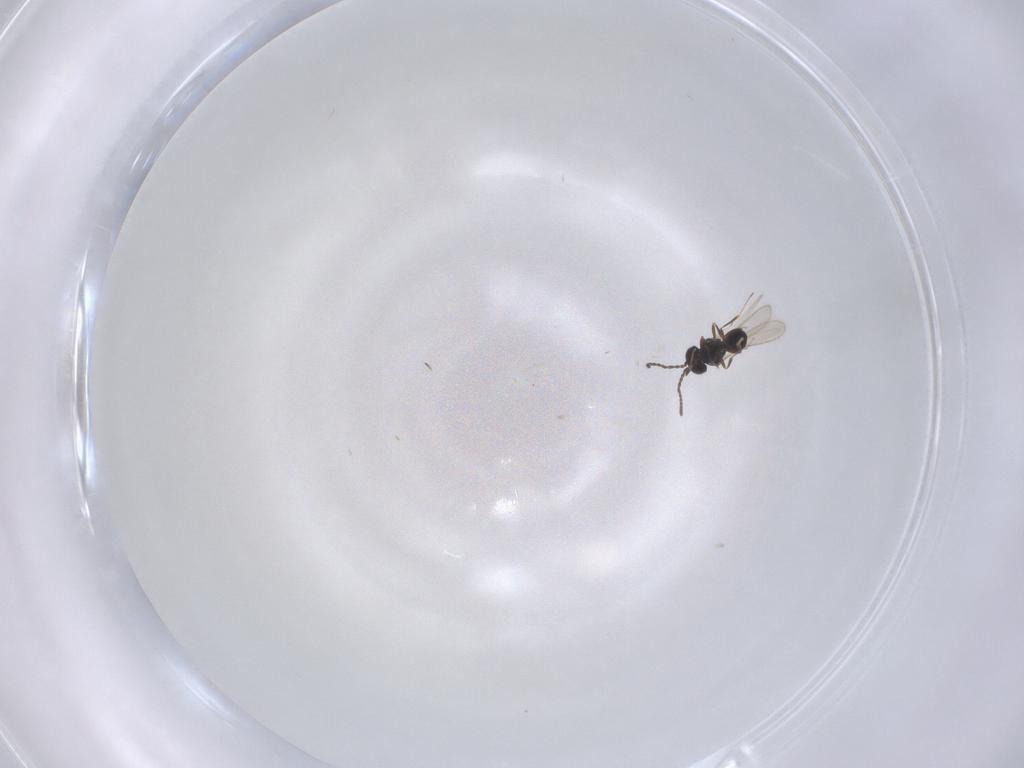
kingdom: Animalia
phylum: Arthropoda
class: Insecta
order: Hymenoptera
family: Scelionidae
